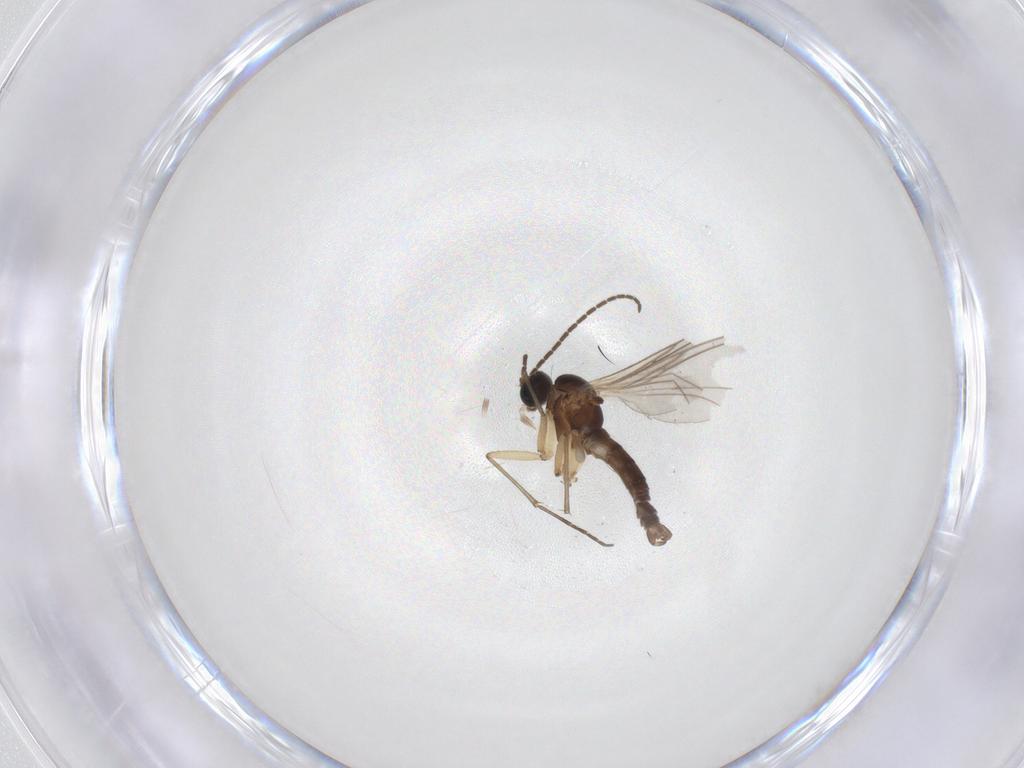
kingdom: Animalia
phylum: Arthropoda
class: Insecta
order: Diptera
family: Sciaridae
